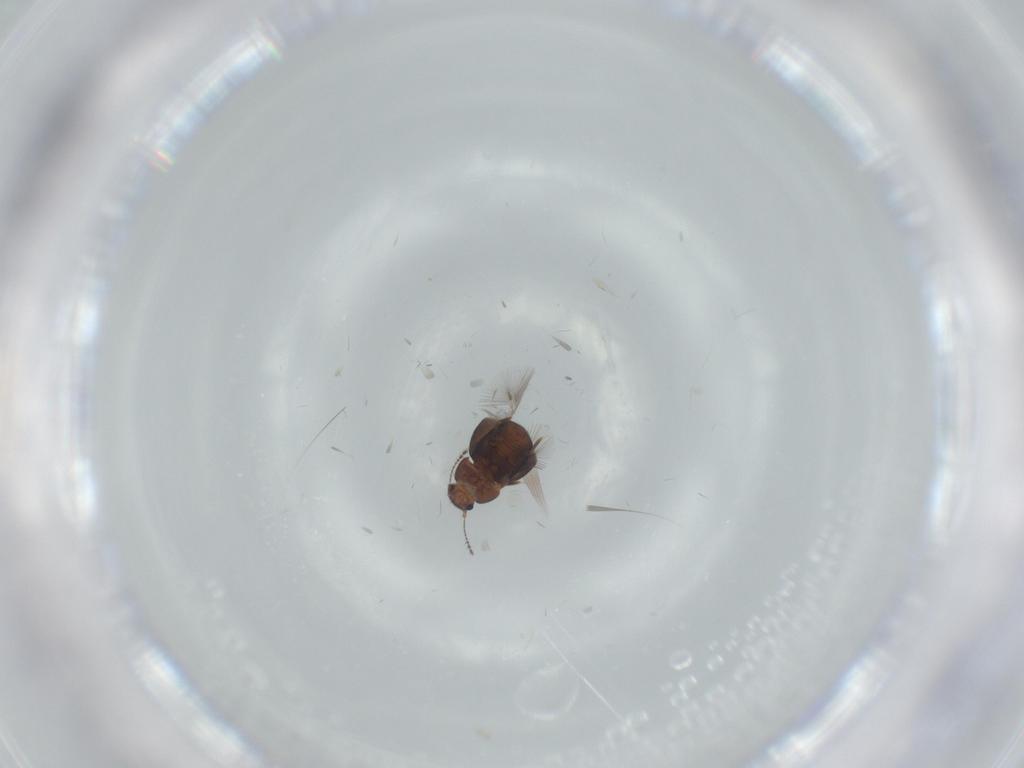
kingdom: Animalia
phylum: Arthropoda
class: Insecta
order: Coleoptera
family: Ptiliidae
